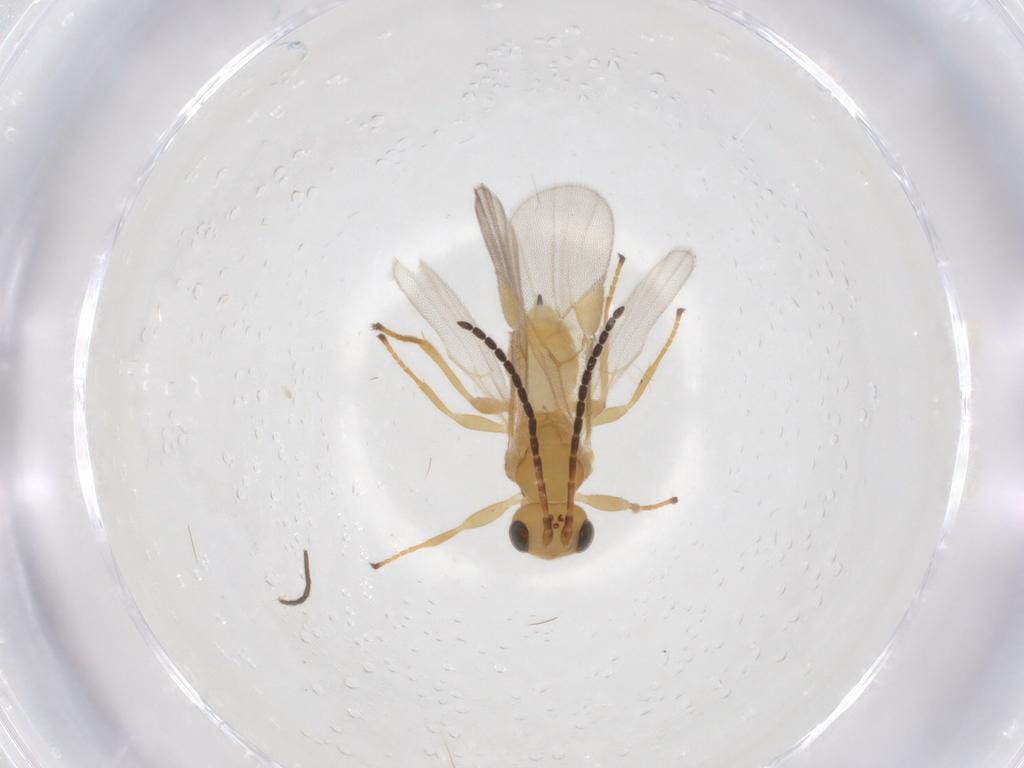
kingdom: Animalia
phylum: Arthropoda
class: Insecta
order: Hymenoptera
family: Braconidae
